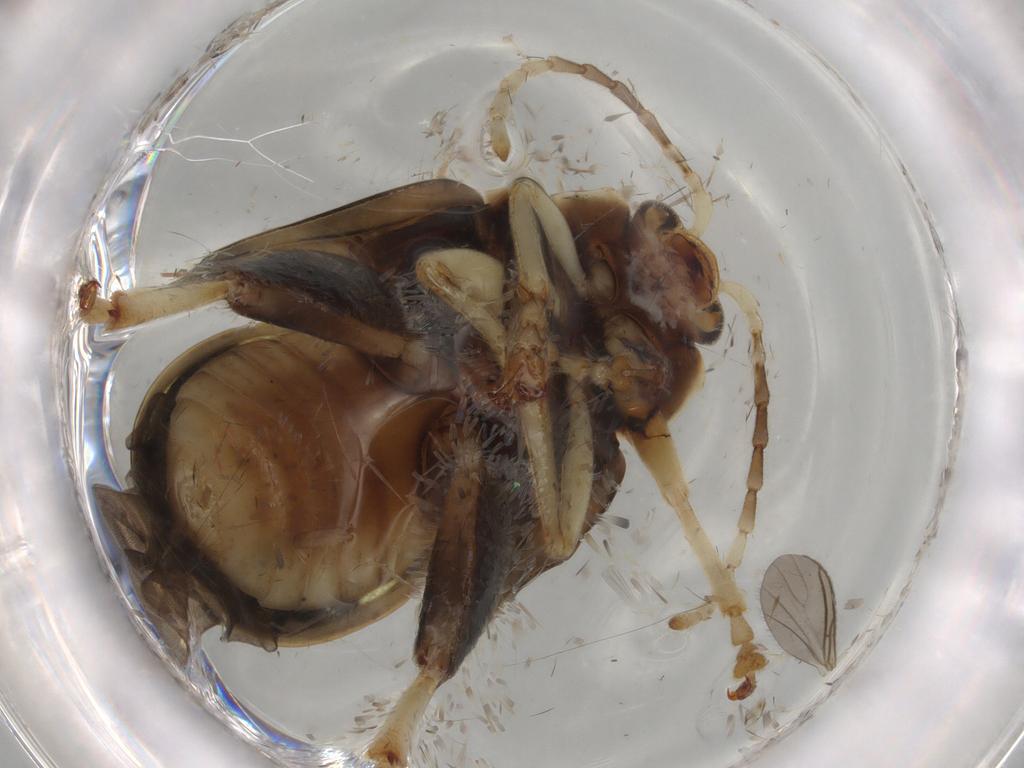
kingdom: Animalia
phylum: Arthropoda
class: Insecta
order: Coleoptera
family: Chrysomelidae
